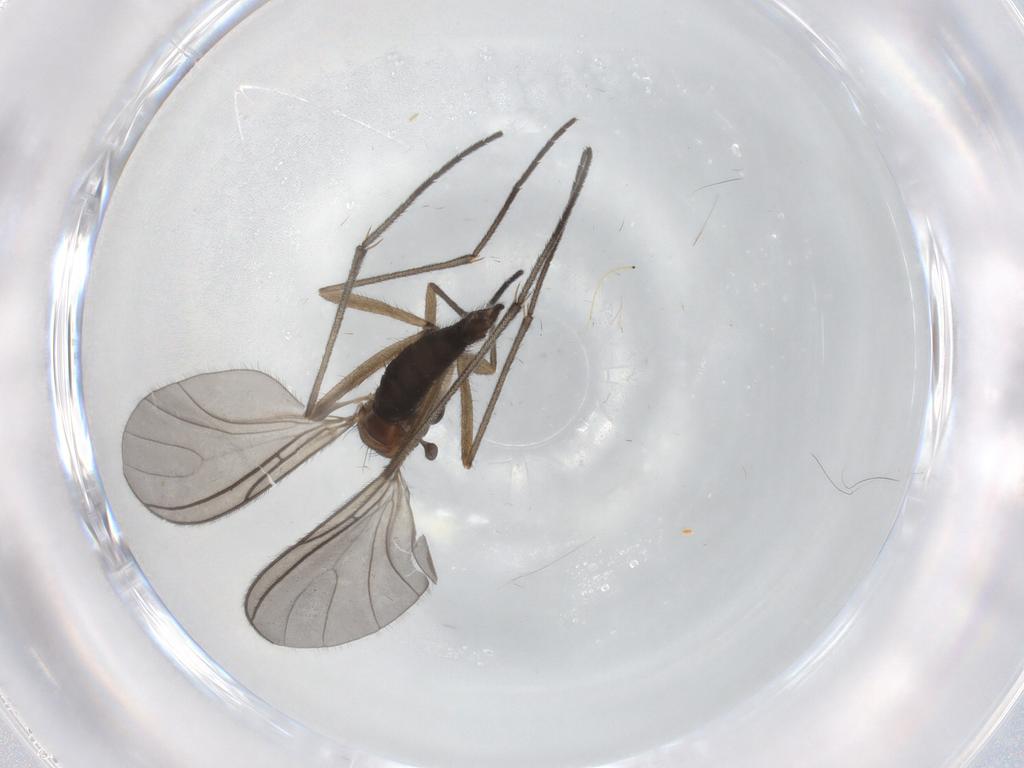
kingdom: Animalia
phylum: Arthropoda
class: Insecta
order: Diptera
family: Sciaridae
